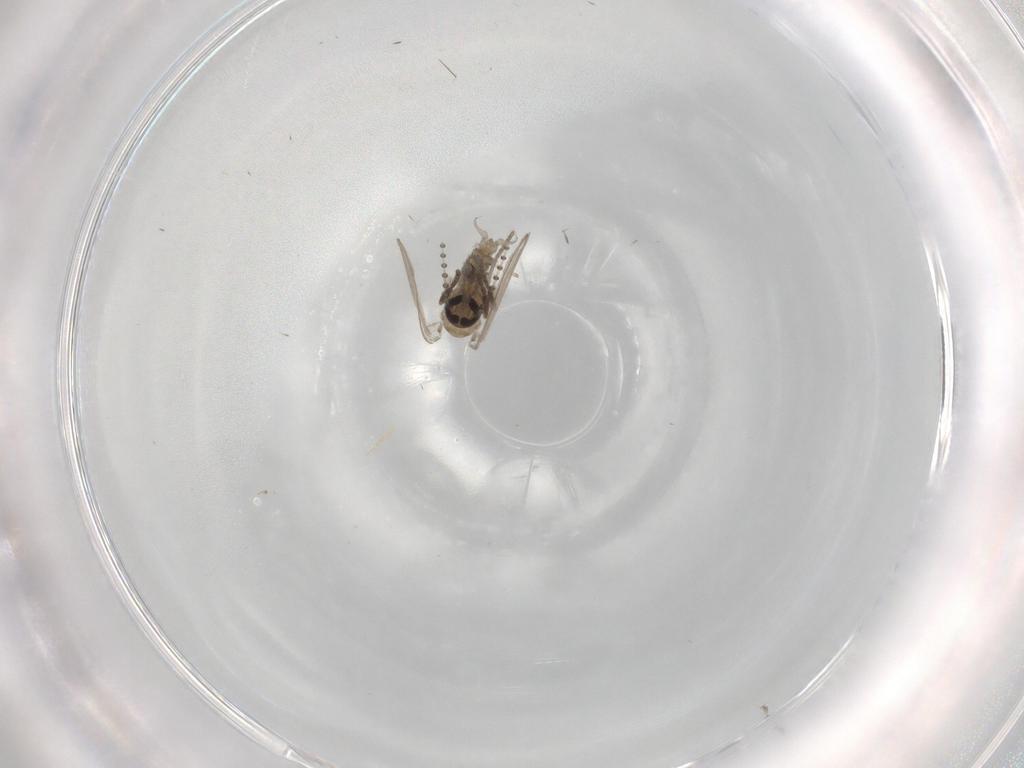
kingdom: Animalia
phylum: Arthropoda
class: Insecta
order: Diptera
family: Psychodidae
